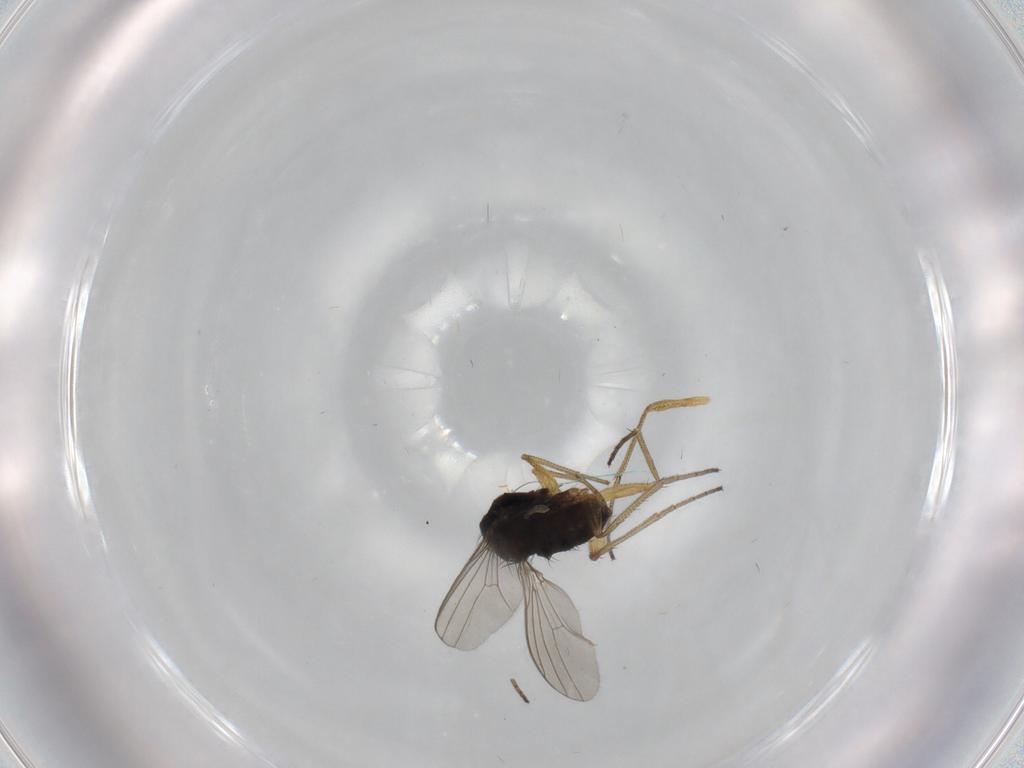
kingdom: Animalia
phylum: Arthropoda
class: Insecta
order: Diptera
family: Dolichopodidae
